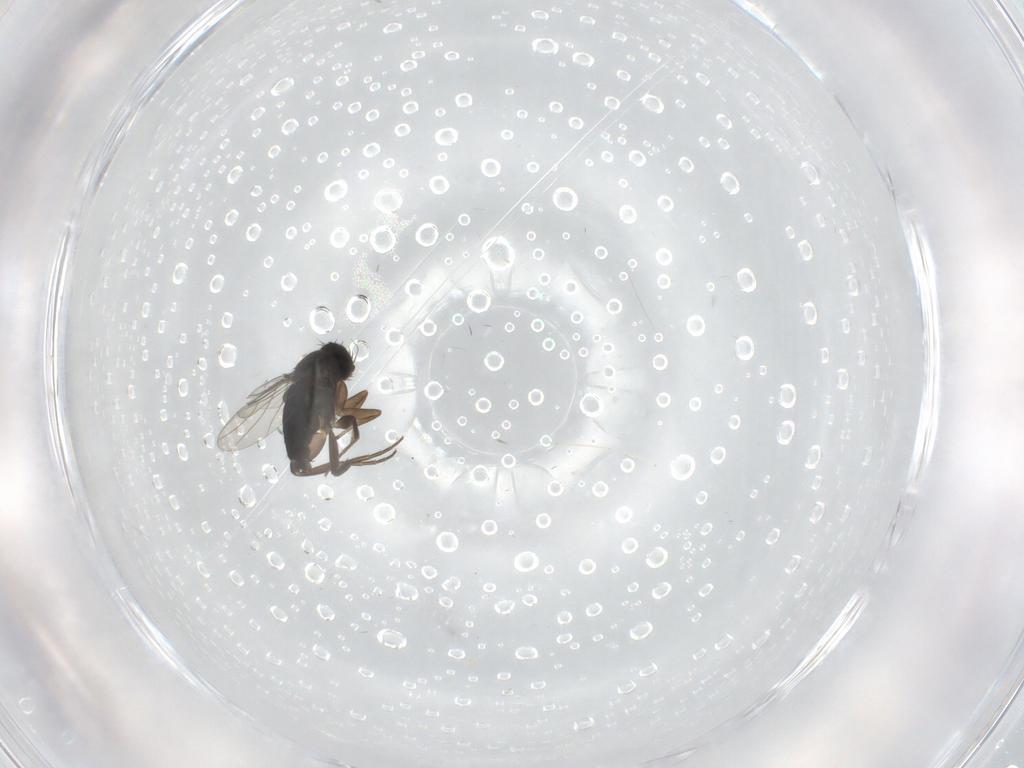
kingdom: Animalia
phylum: Arthropoda
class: Insecta
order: Diptera
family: Phoridae
